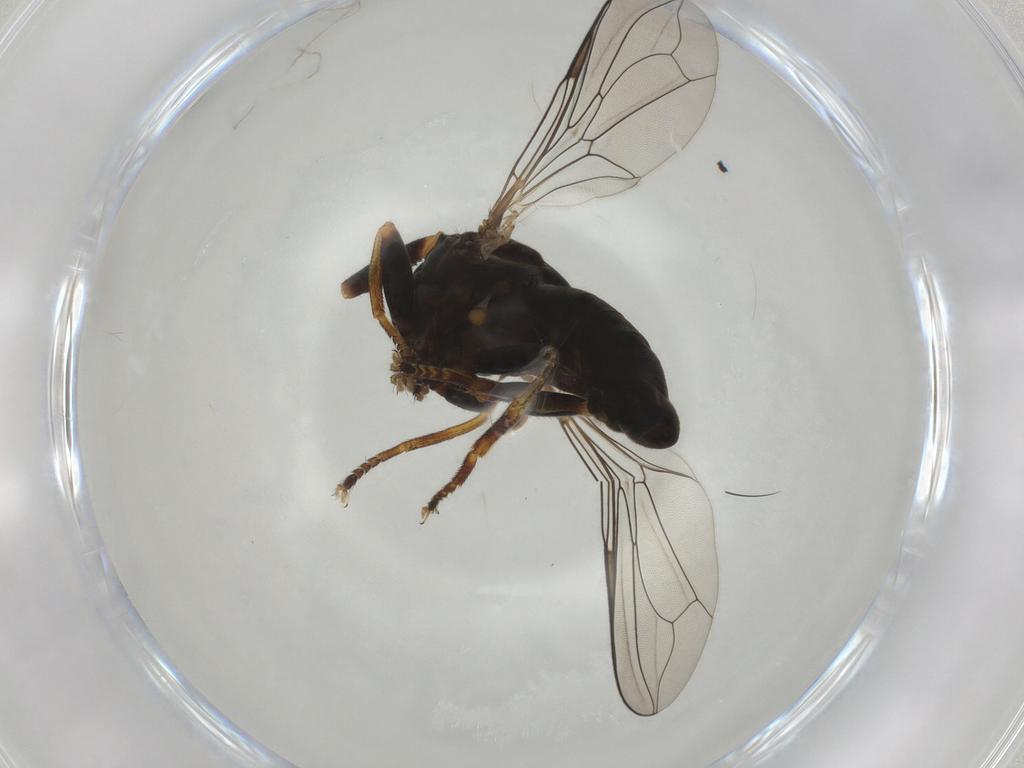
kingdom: Animalia
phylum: Arthropoda
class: Insecta
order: Diptera
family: Pipunculidae
